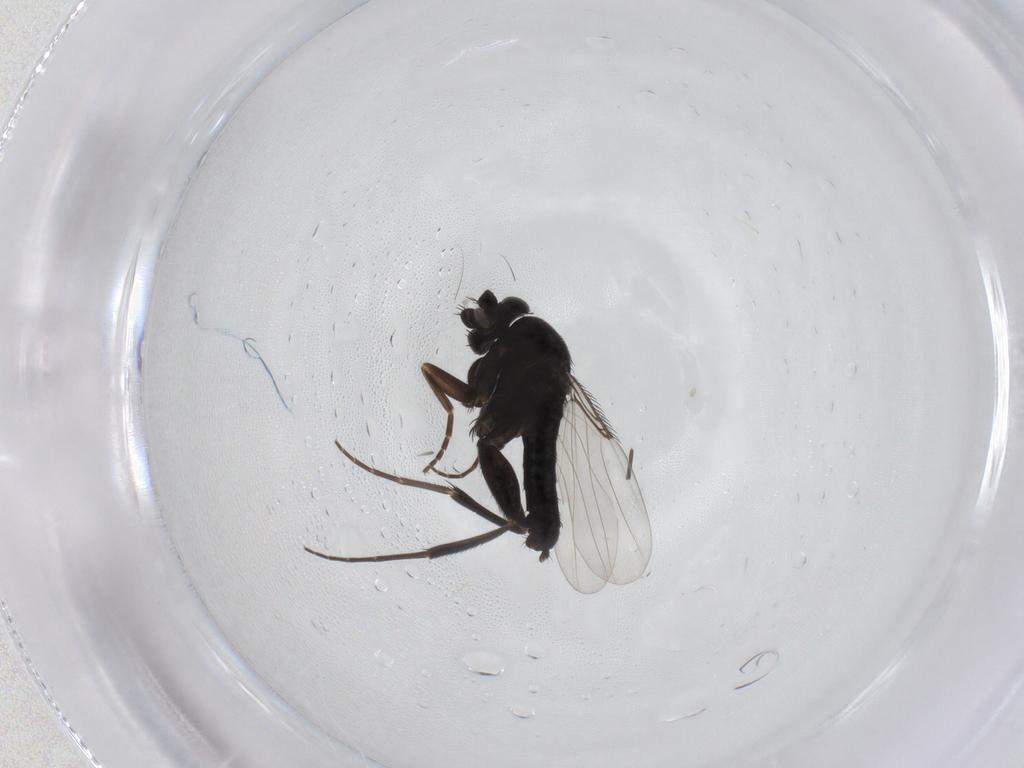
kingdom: Animalia
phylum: Arthropoda
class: Insecta
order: Diptera
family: Phoridae
